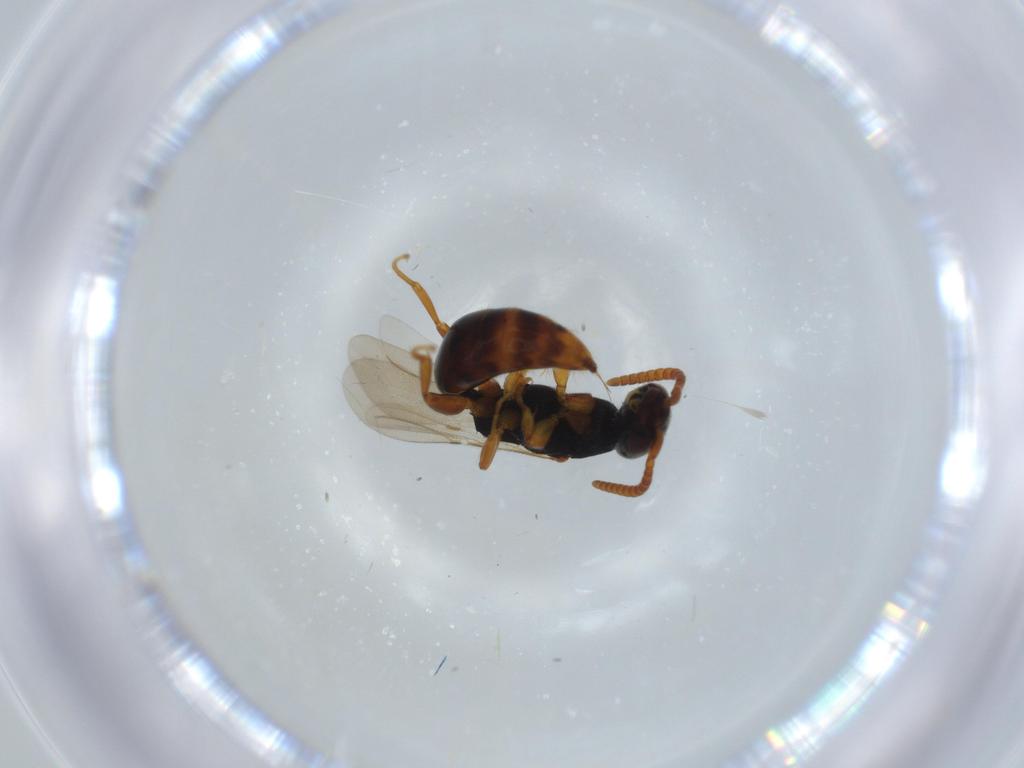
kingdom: Animalia
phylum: Arthropoda
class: Insecta
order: Hymenoptera
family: Bethylidae
